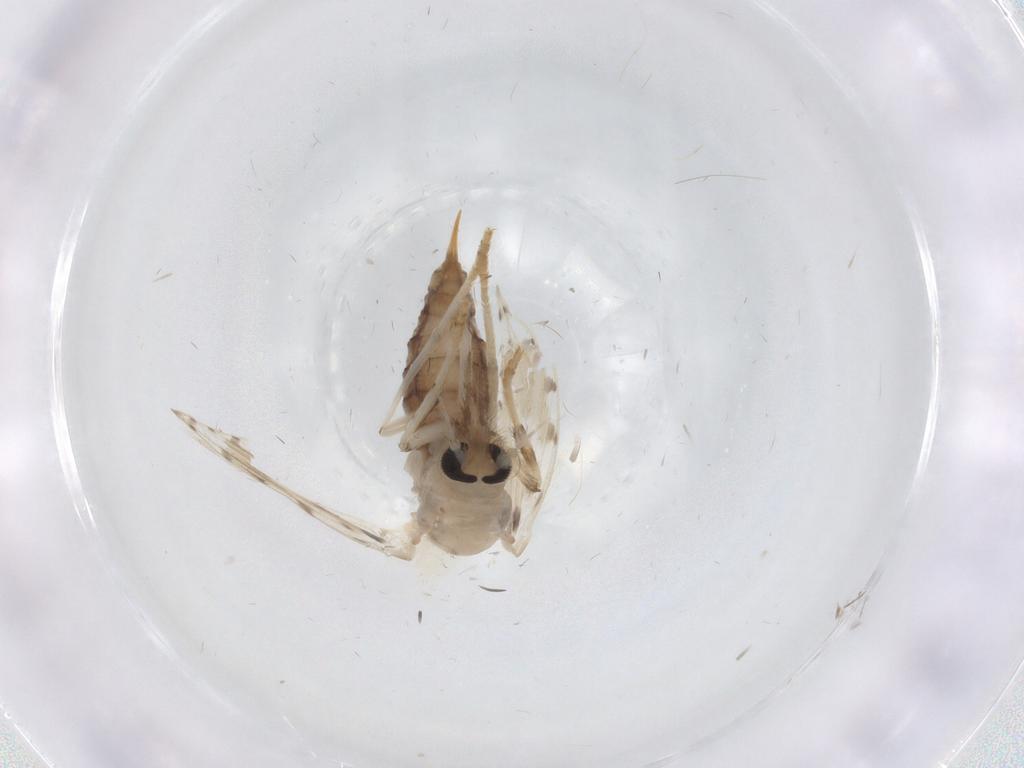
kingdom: Animalia
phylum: Arthropoda
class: Insecta
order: Diptera
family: Psychodidae
